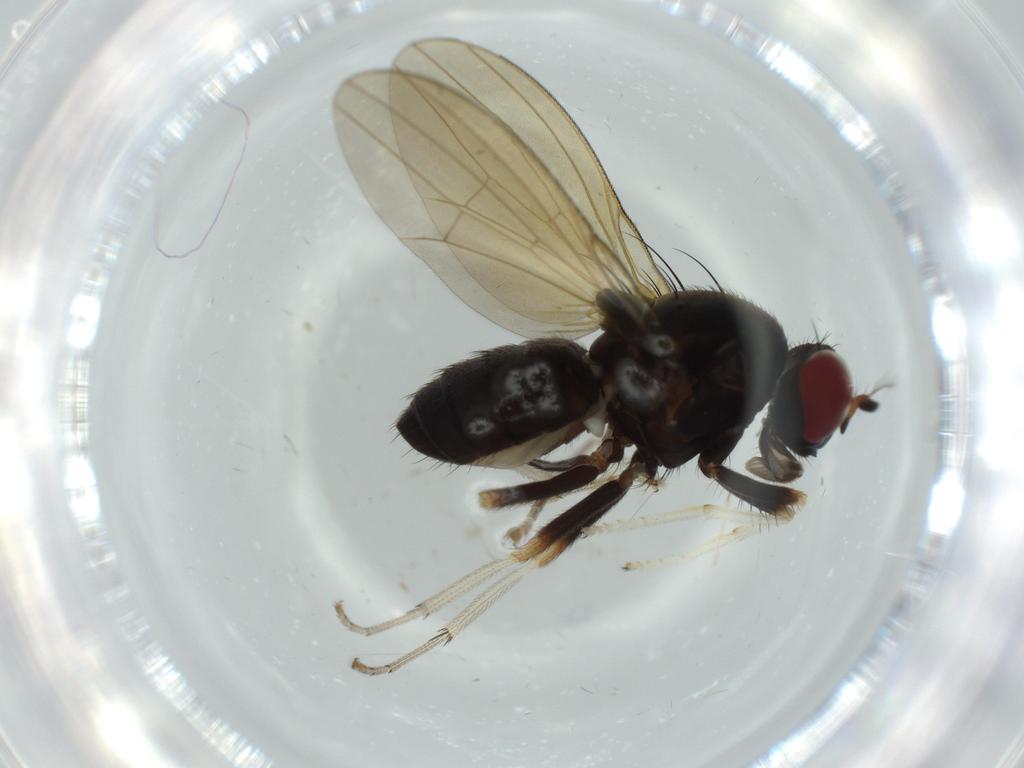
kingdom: Animalia
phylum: Arthropoda
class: Insecta
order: Diptera
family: Lauxaniidae
